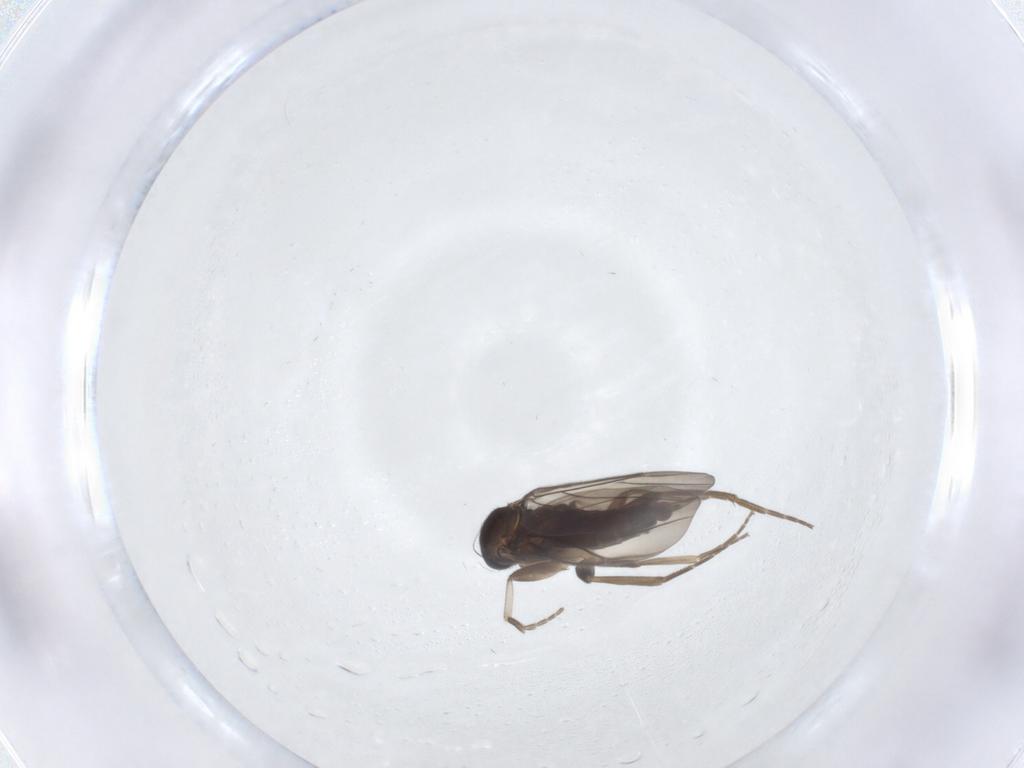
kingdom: Animalia
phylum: Arthropoda
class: Insecta
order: Diptera
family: Phoridae
